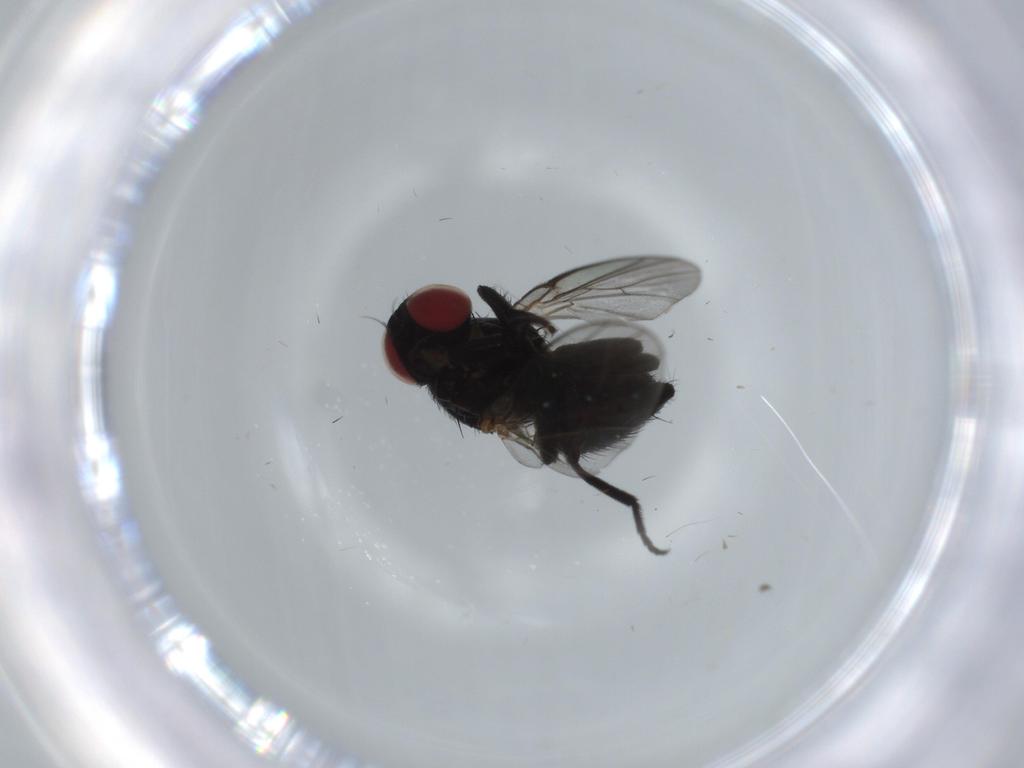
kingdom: Animalia
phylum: Arthropoda
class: Insecta
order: Diptera
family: Agromyzidae
